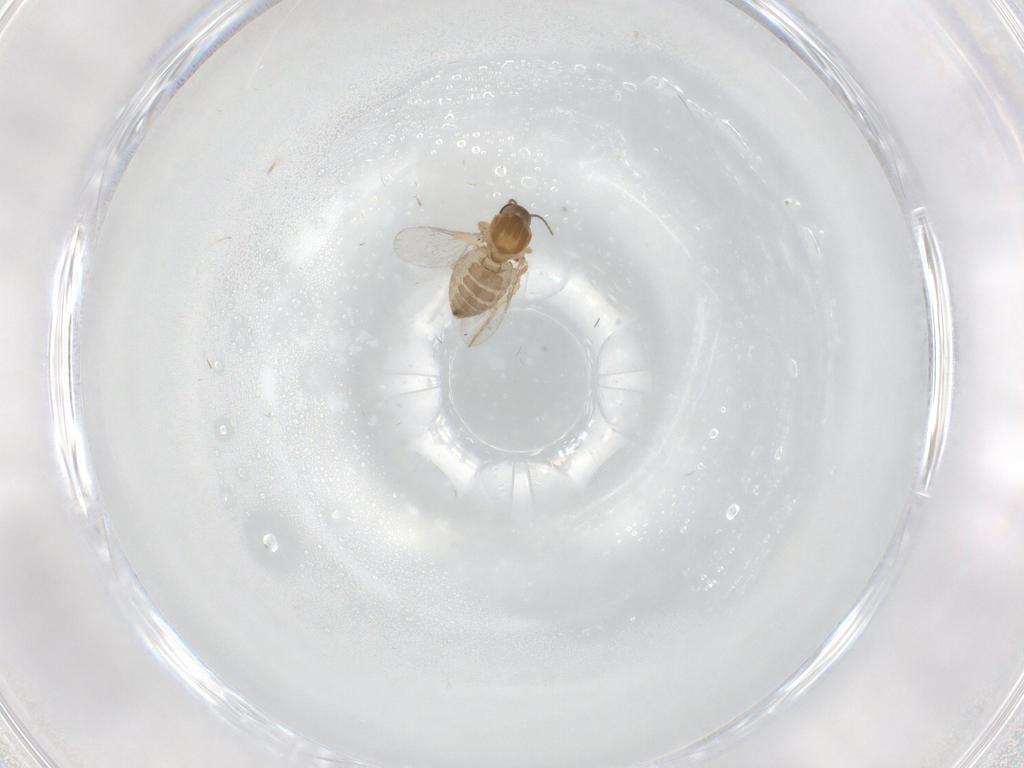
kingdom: Animalia
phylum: Arthropoda
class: Insecta
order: Diptera
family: Ceratopogonidae
